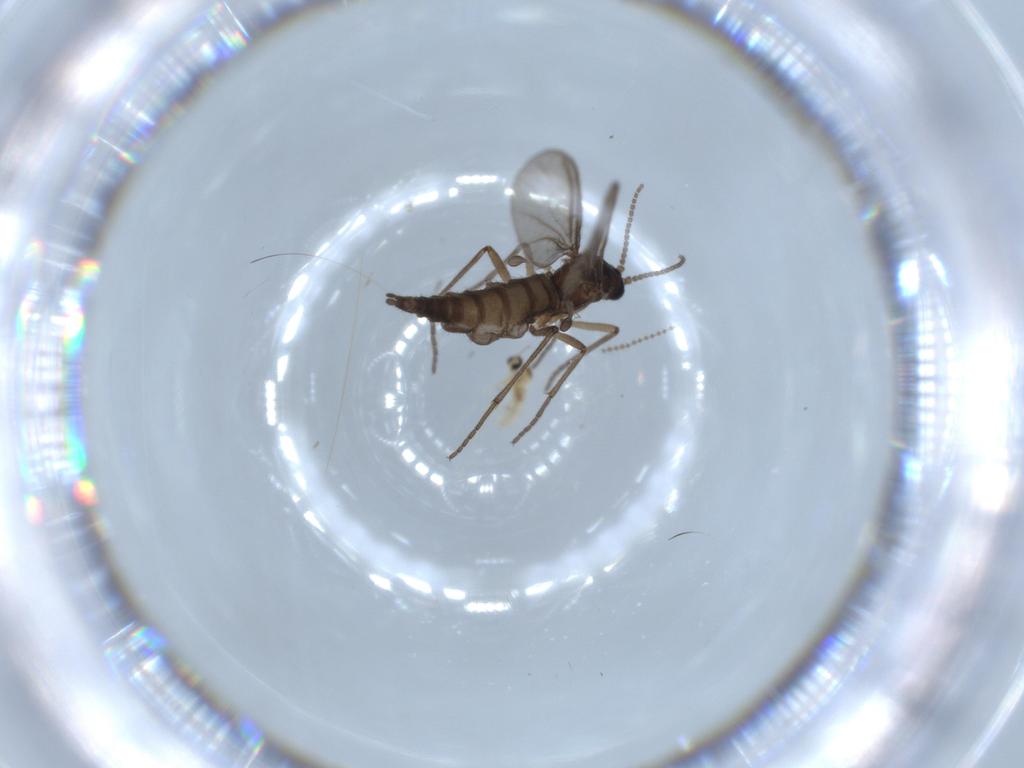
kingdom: Animalia
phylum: Arthropoda
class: Insecta
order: Diptera
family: Sciaridae
